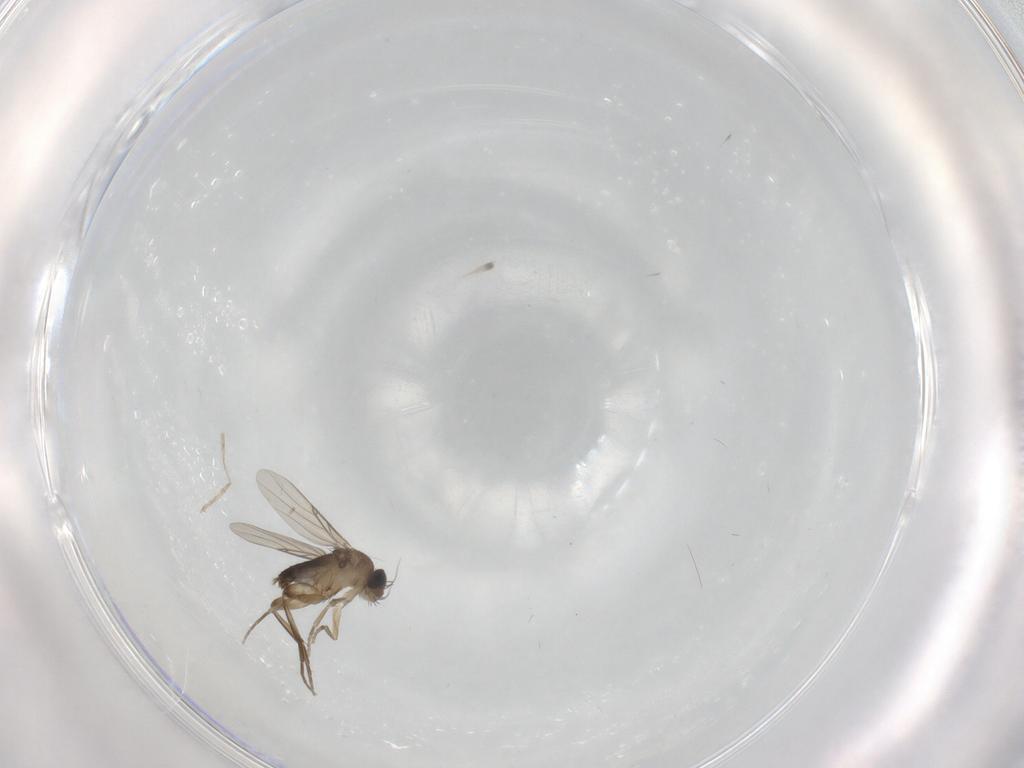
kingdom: Animalia
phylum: Arthropoda
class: Insecta
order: Diptera
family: Phoridae
